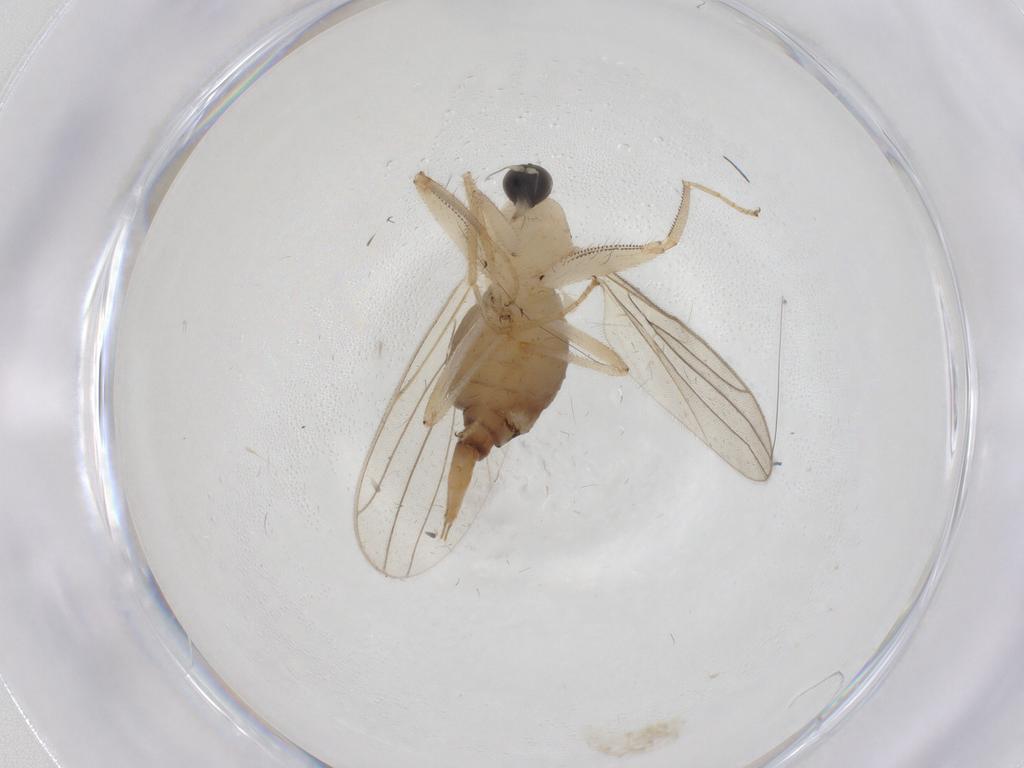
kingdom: Animalia
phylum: Arthropoda
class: Insecta
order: Diptera
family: Hybotidae
